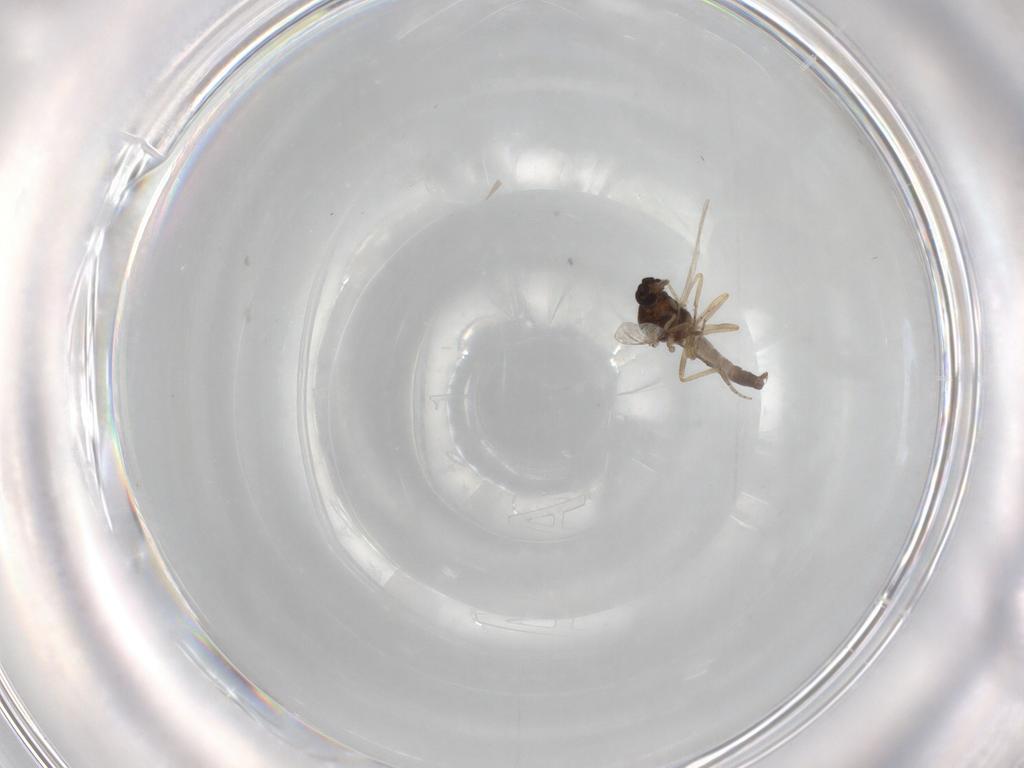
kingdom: Animalia
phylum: Arthropoda
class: Insecta
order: Diptera
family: Ceratopogonidae
